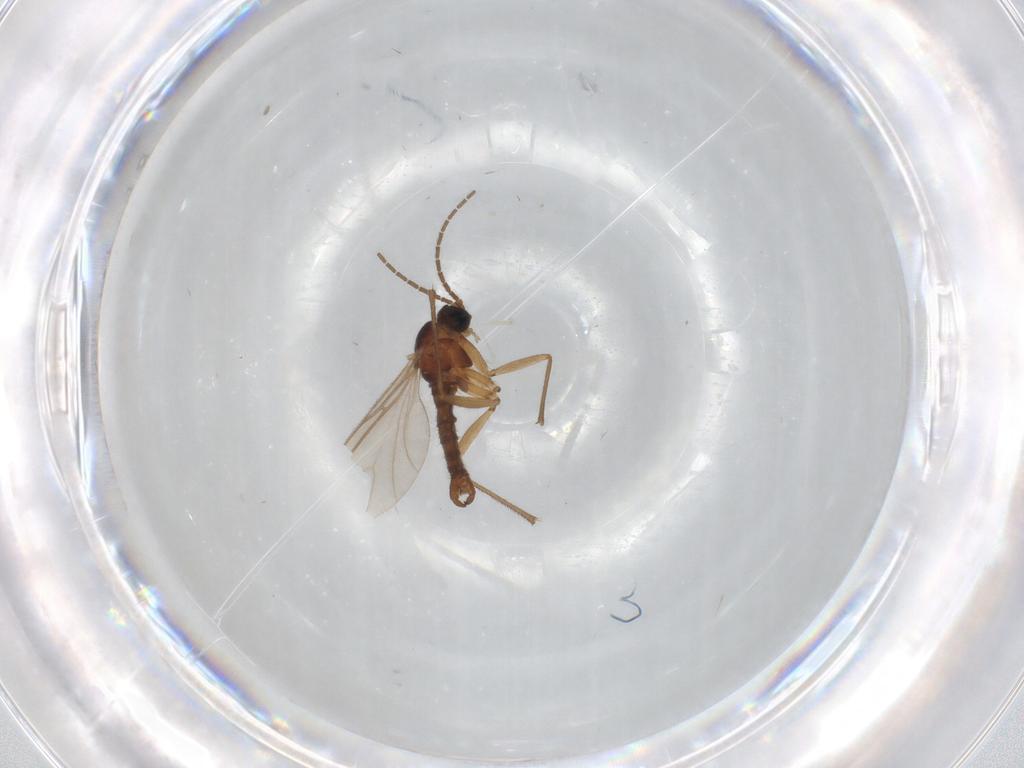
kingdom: Animalia
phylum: Arthropoda
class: Insecta
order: Diptera
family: Sciaridae
